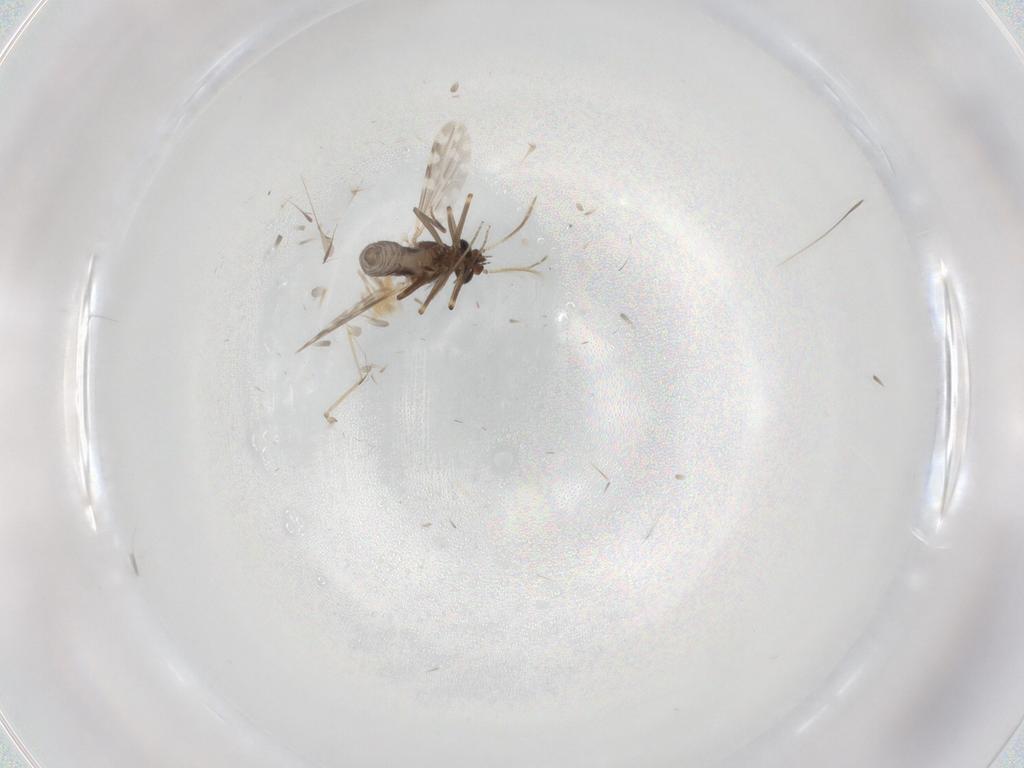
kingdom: Animalia
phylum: Arthropoda
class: Insecta
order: Diptera
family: Ceratopogonidae
